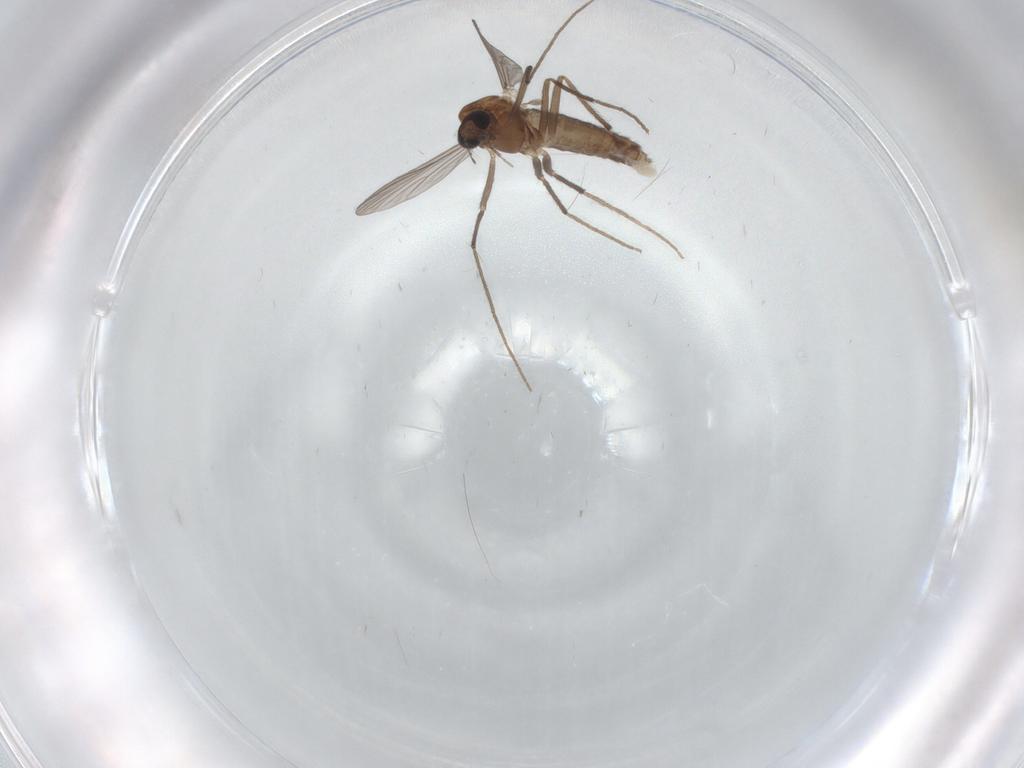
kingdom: Animalia
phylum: Arthropoda
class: Insecta
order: Diptera
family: Chironomidae
